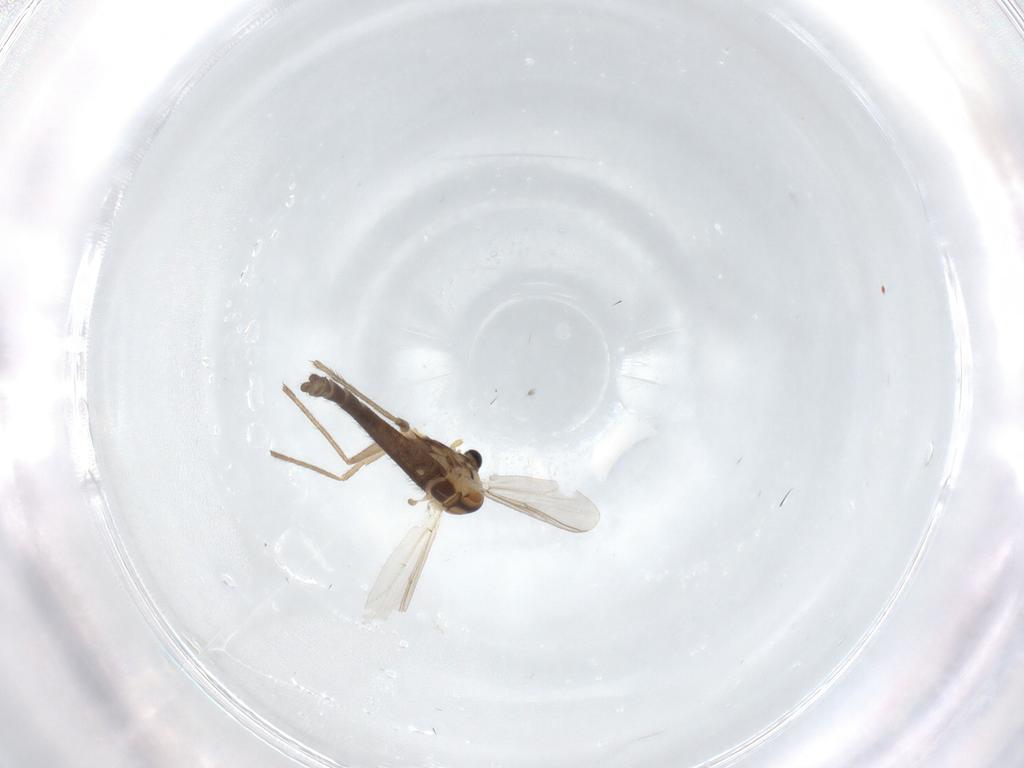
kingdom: Animalia
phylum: Arthropoda
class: Insecta
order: Diptera
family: Chironomidae
